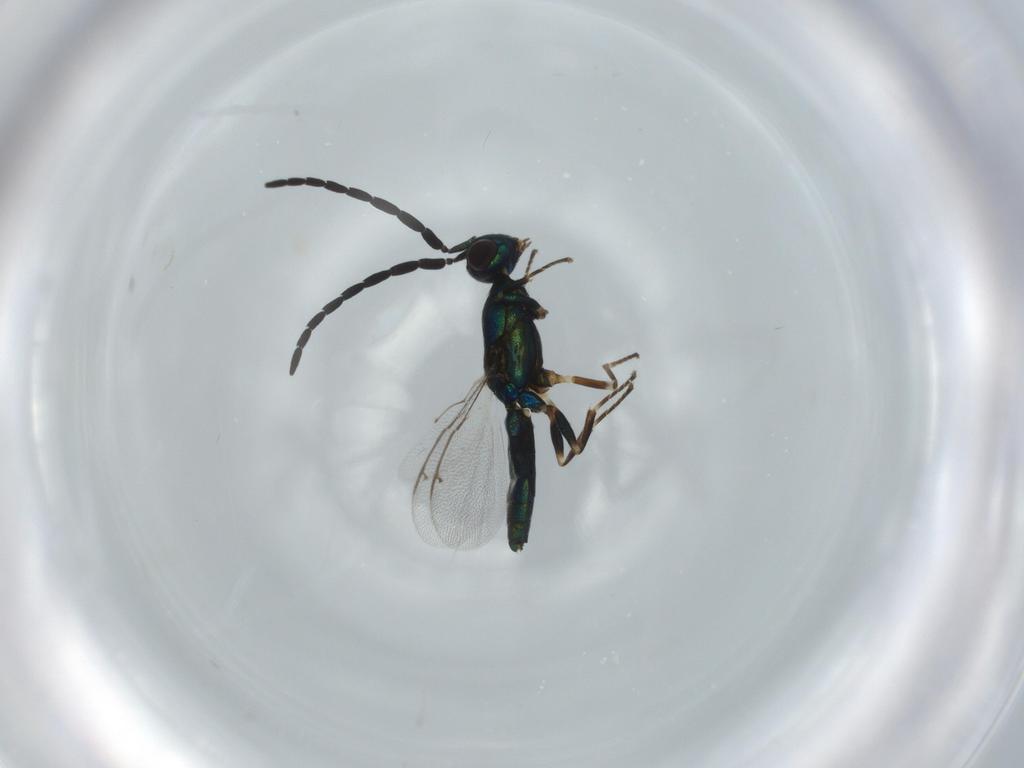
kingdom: Animalia
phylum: Arthropoda
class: Insecta
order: Hymenoptera
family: Eupelmidae
